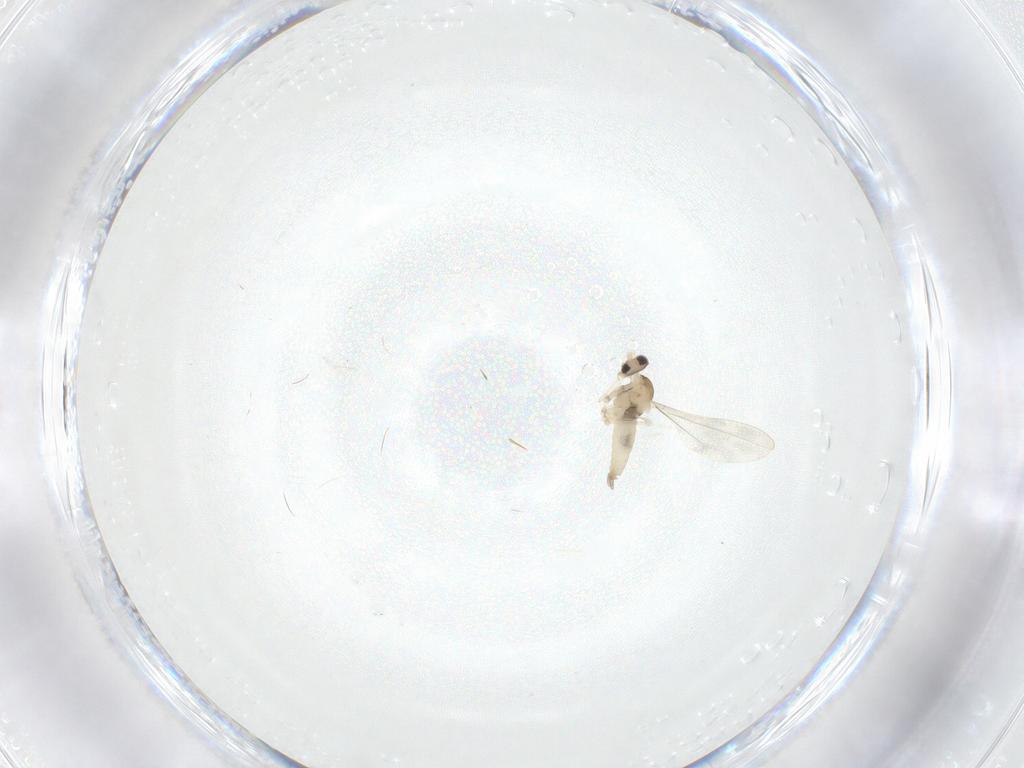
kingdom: Animalia
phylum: Arthropoda
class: Insecta
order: Diptera
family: Cecidomyiidae
